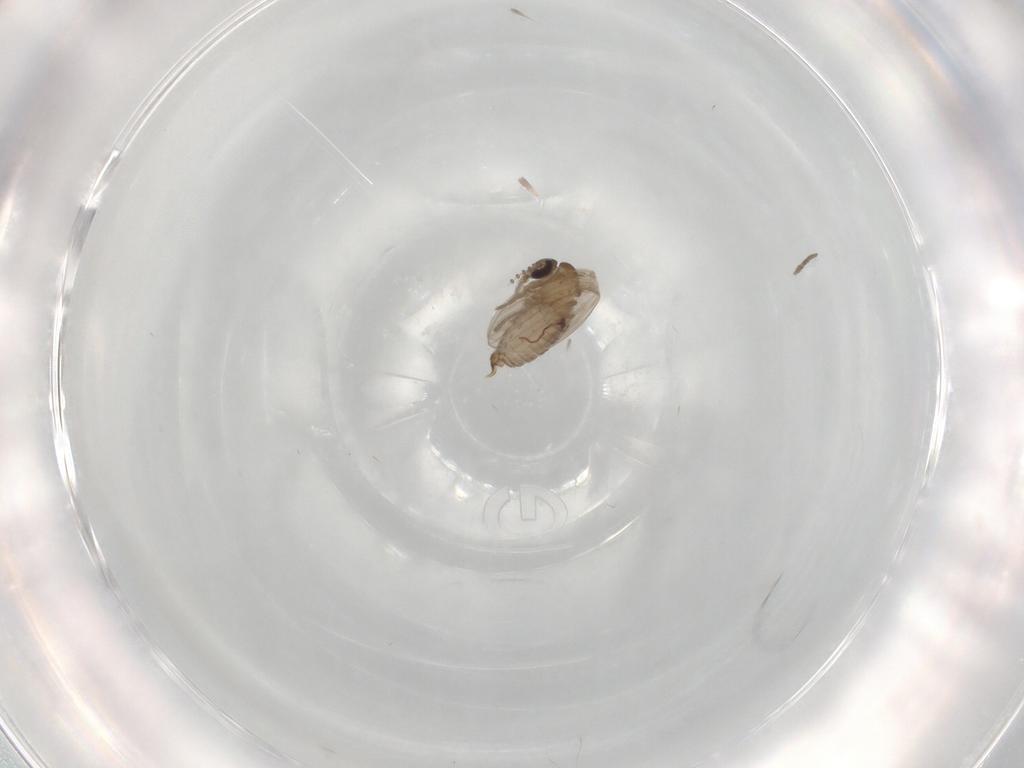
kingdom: Animalia
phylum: Arthropoda
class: Insecta
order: Diptera
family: Psychodidae
